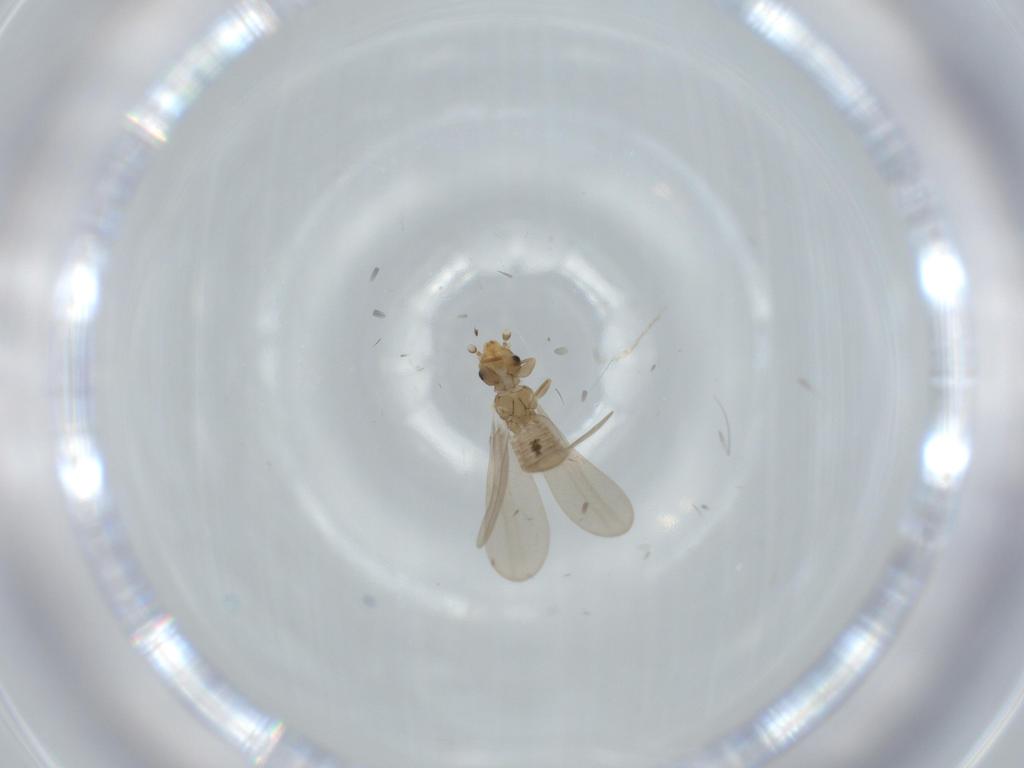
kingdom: Animalia
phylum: Arthropoda
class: Insecta
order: Psocodea
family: Liposcelididae
